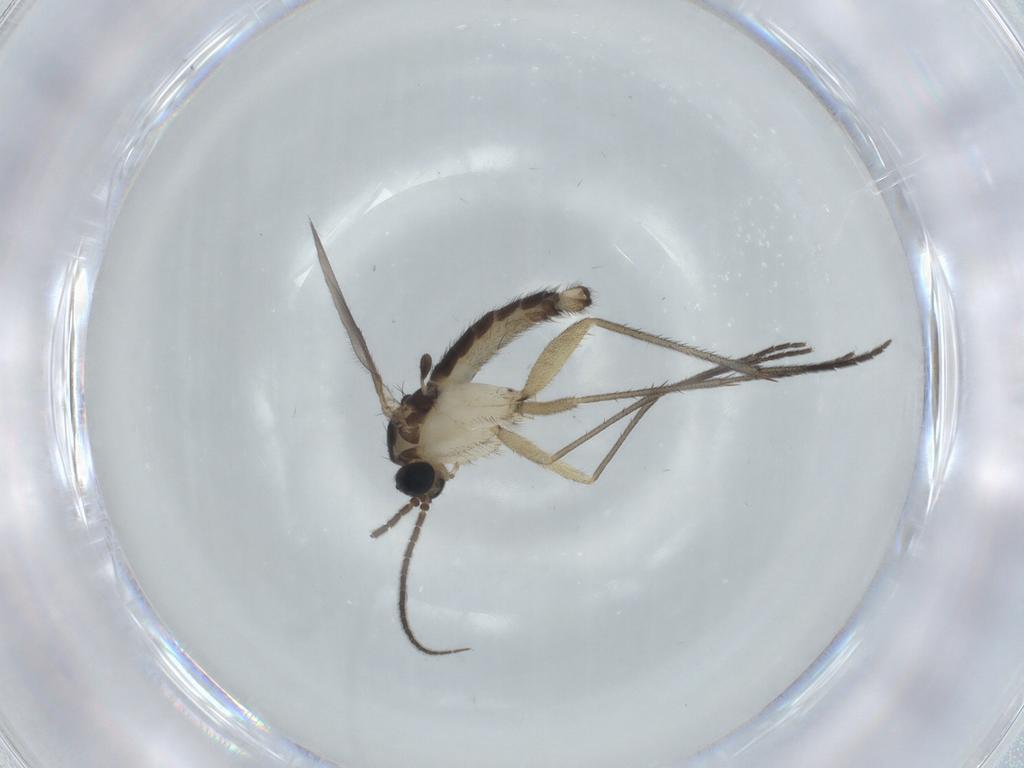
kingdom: Animalia
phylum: Arthropoda
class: Insecta
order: Diptera
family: Sciaridae
